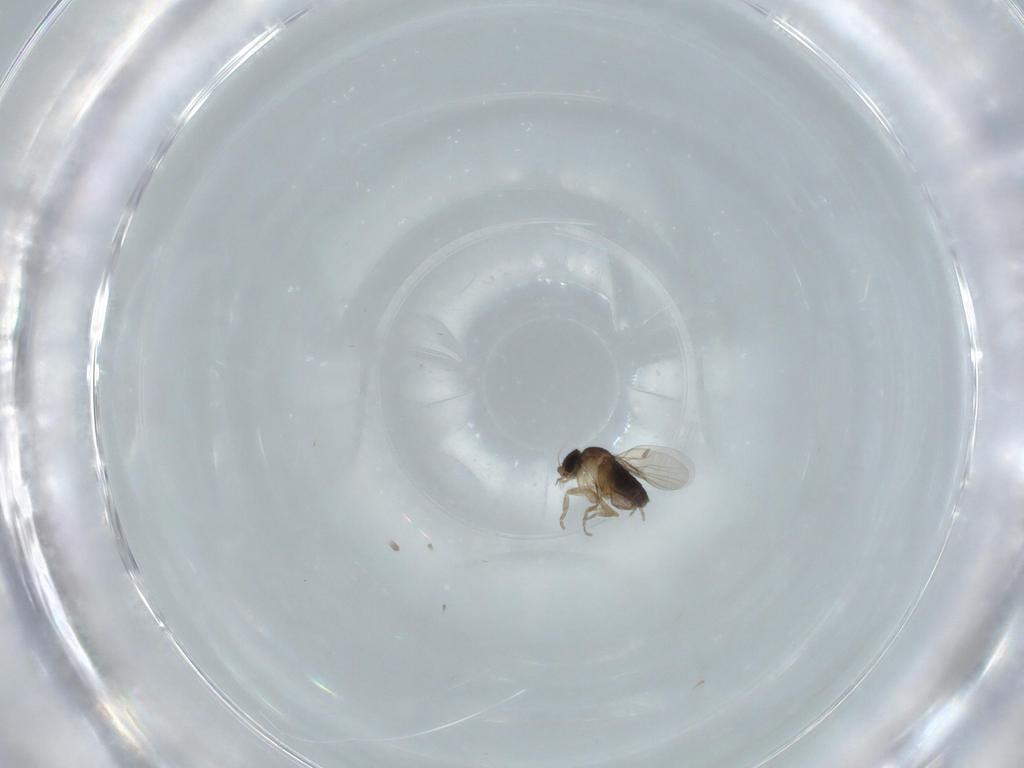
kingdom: Animalia
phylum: Arthropoda
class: Insecta
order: Diptera
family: Phoridae
